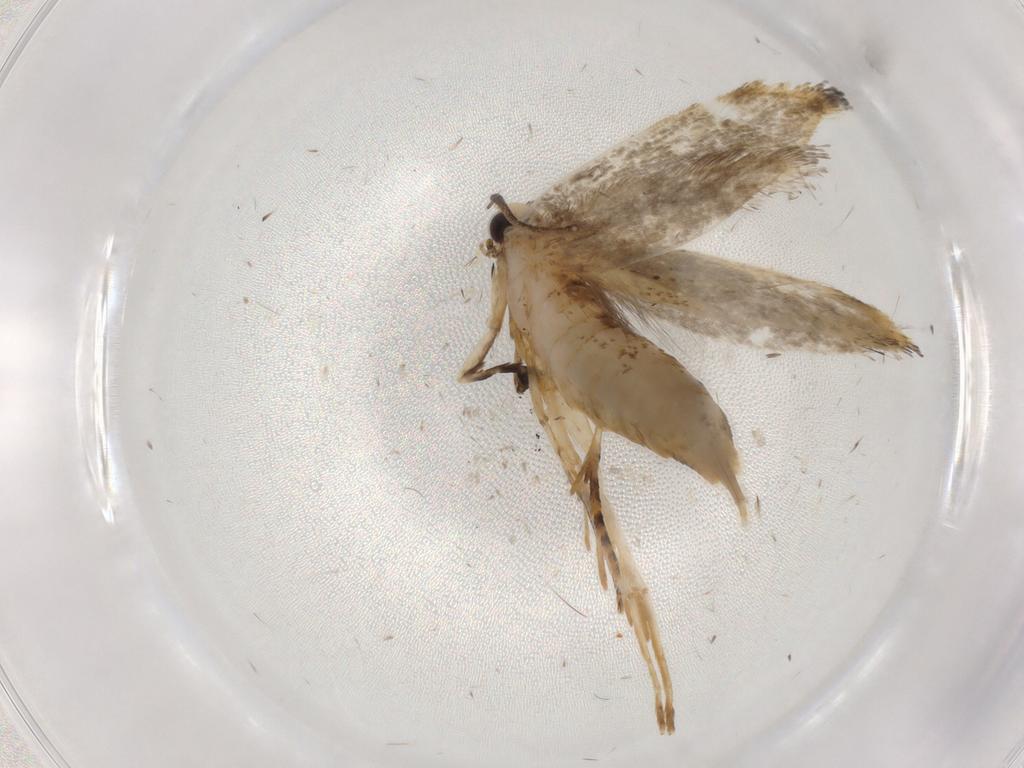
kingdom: Animalia
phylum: Arthropoda
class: Insecta
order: Lepidoptera
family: Tineidae
